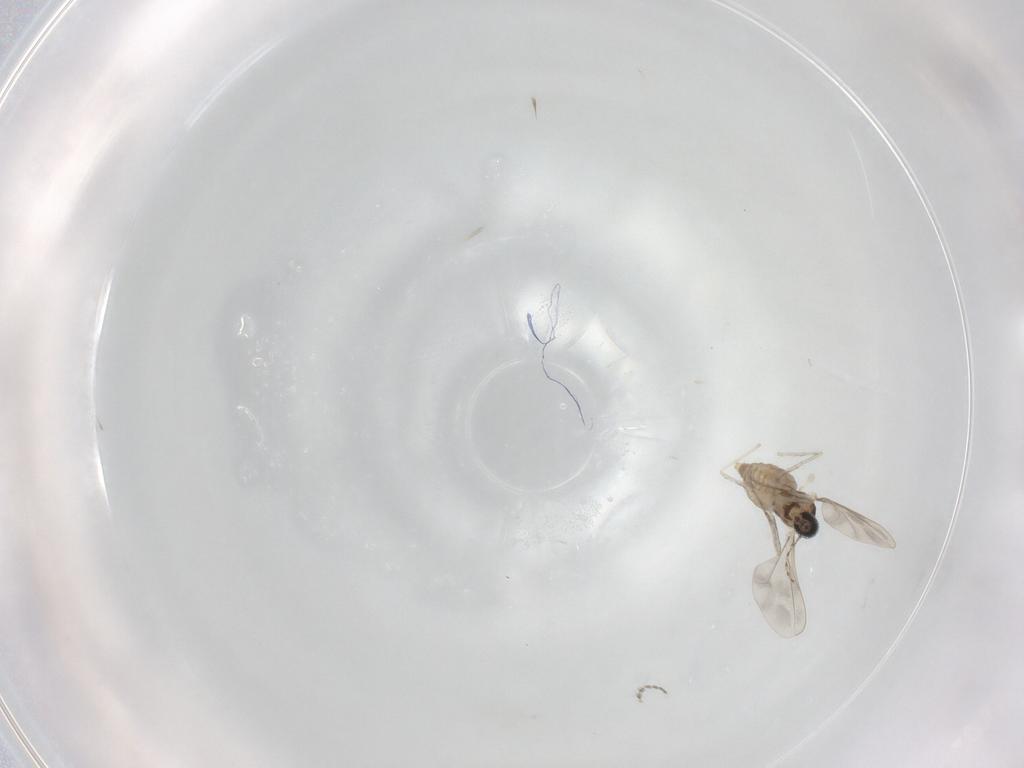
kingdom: Animalia
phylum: Arthropoda
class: Insecta
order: Diptera
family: Cecidomyiidae
